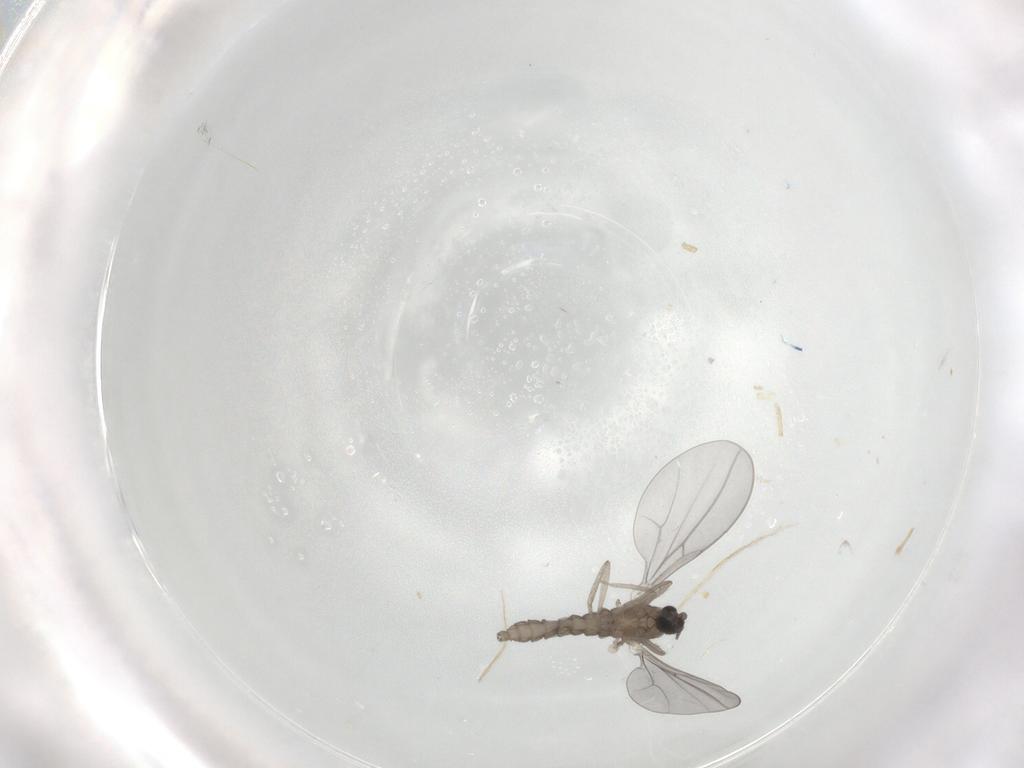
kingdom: Animalia
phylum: Arthropoda
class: Insecta
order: Diptera
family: Cecidomyiidae
